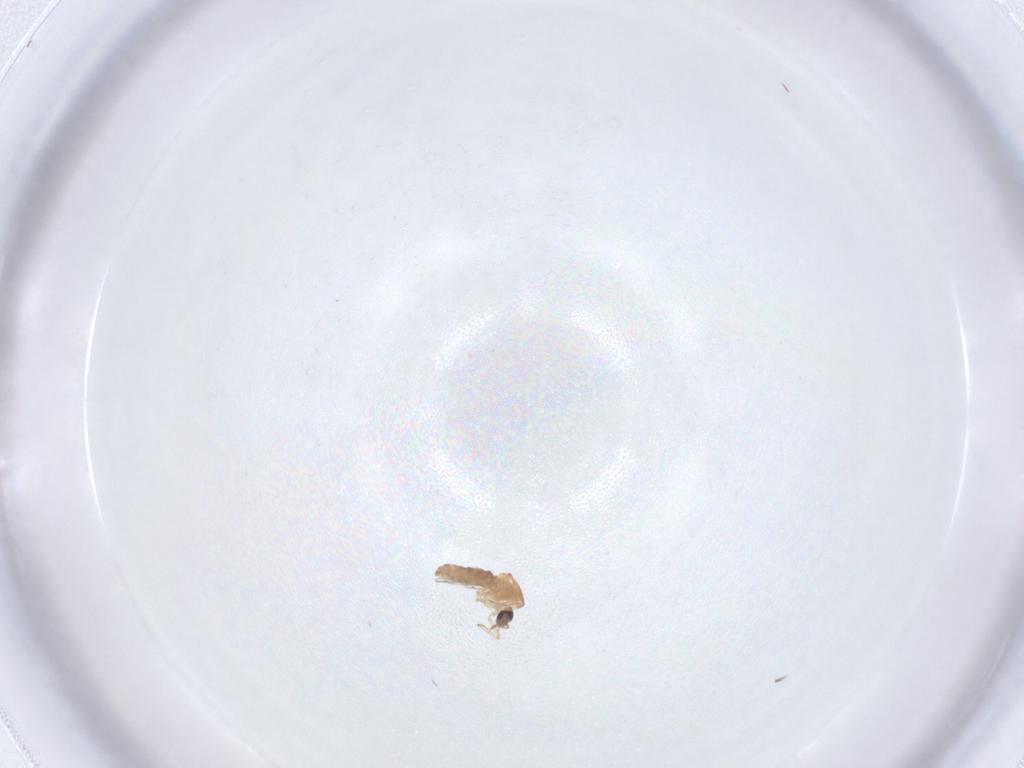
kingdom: Animalia
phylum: Arthropoda
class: Insecta
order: Diptera
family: Ceratopogonidae
